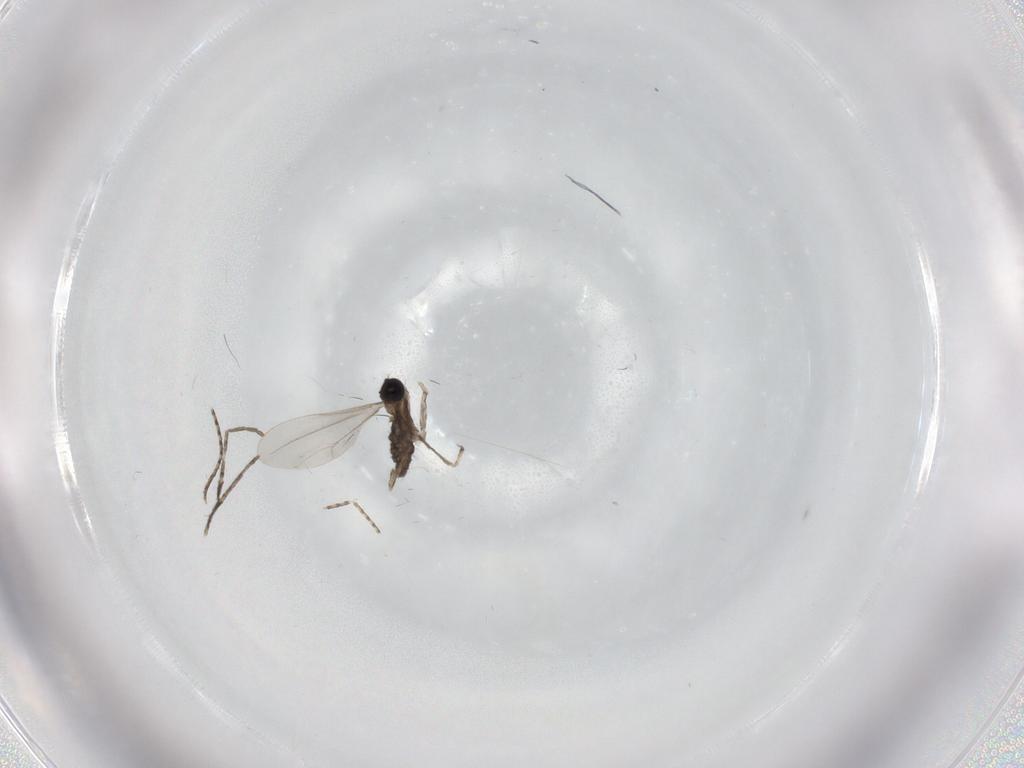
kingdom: Animalia
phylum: Arthropoda
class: Insecta
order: Diptera
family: Cecidomyiidae
